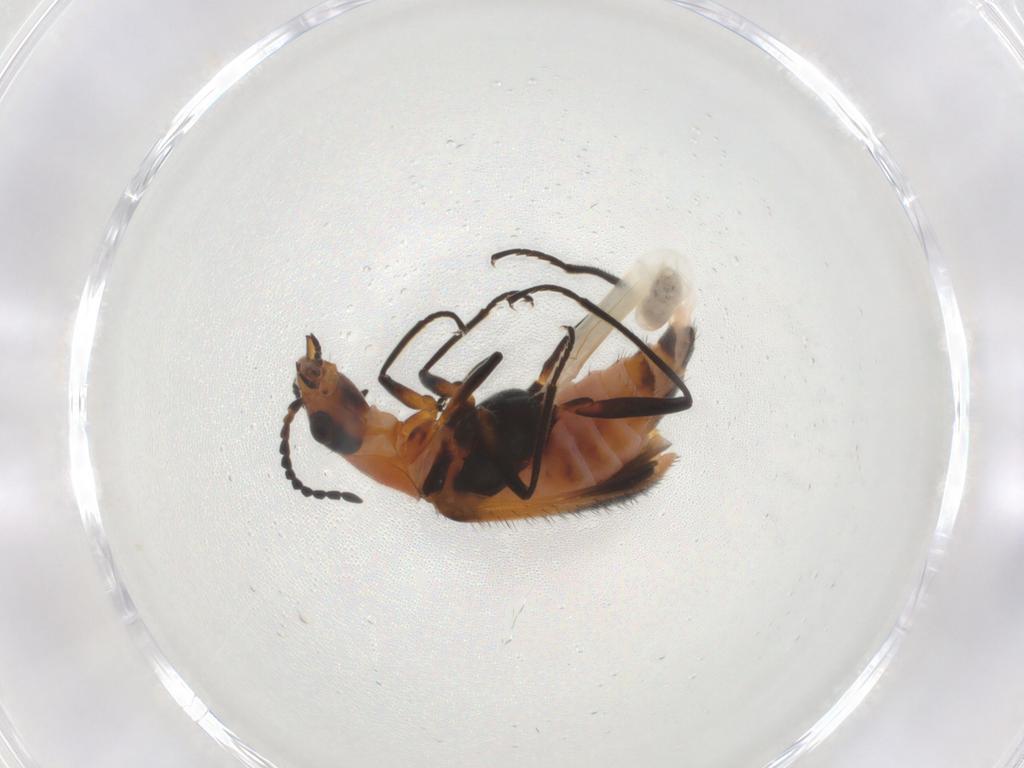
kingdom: Animalia
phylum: Arthropoda
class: Insecta
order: Coleoptera
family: Melyridae
